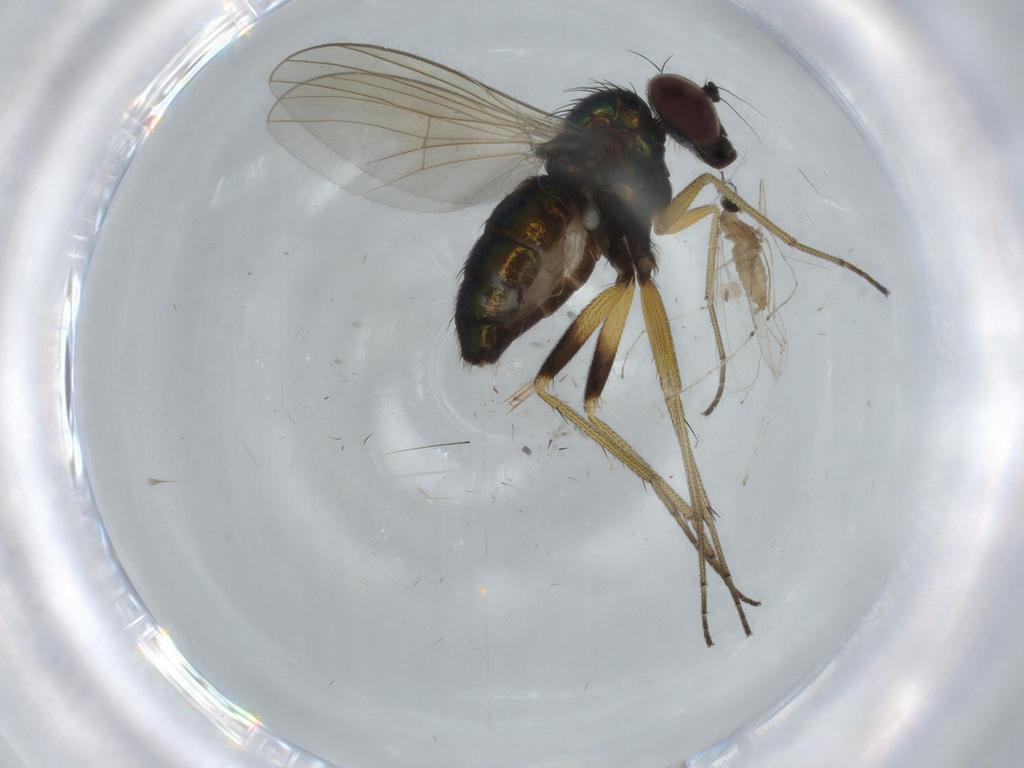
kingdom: Animalia
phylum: Arthropoda
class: Insecta
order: Diptera
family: Cecidomyiidae
